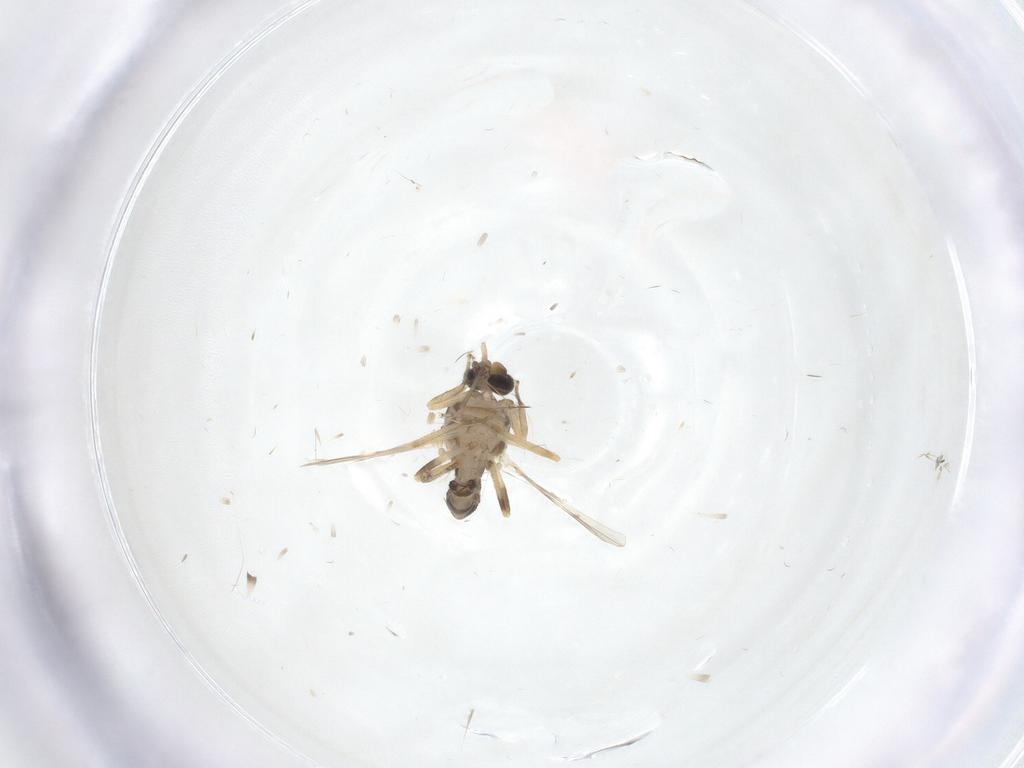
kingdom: Animalia
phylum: Arthropoda
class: Insecta
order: Diptera
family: Ceratopogonidae
